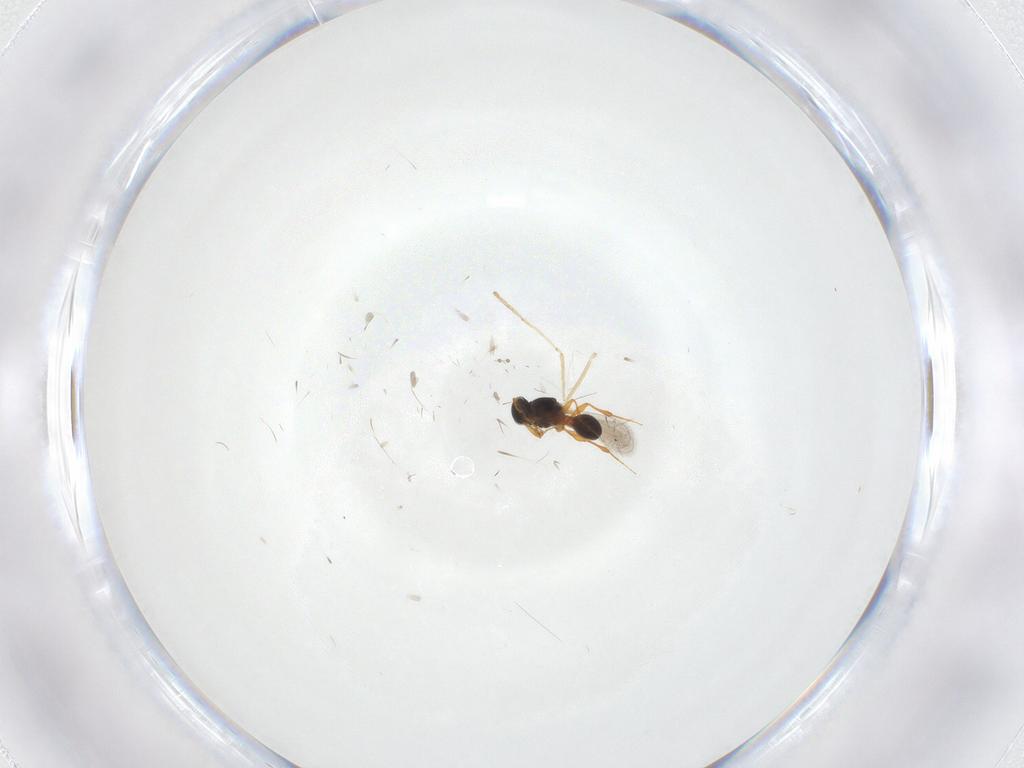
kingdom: Animalia
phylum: Arthropoda
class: Insecta
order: Diptera
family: Cecidomyiidae
